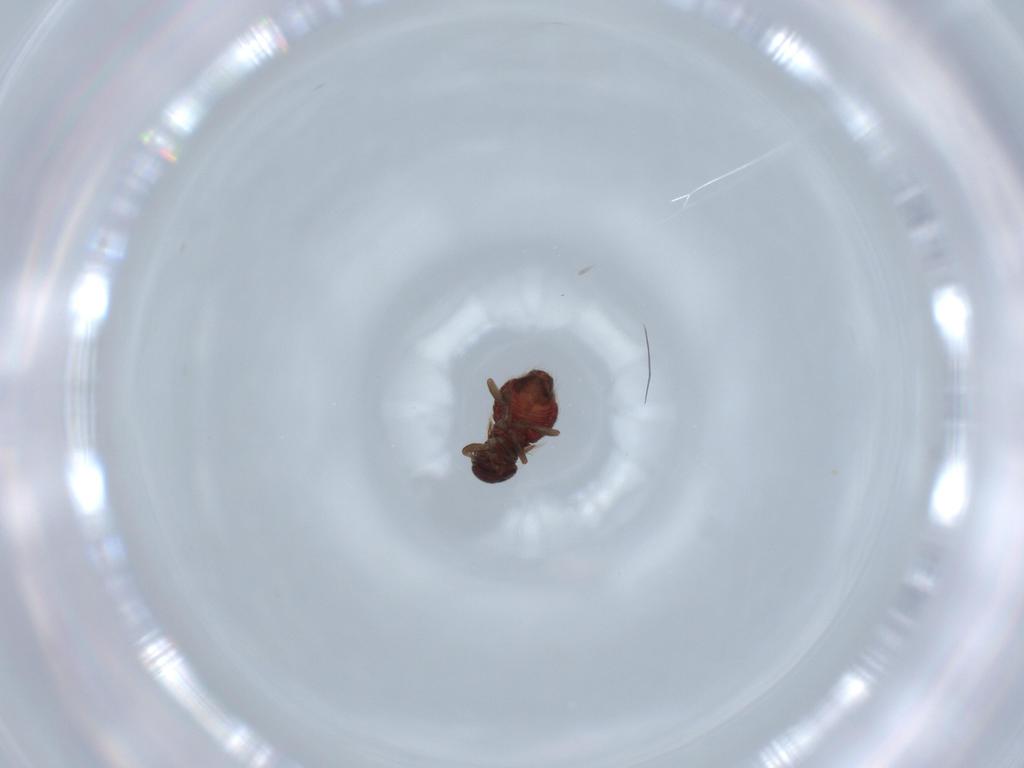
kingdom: Animalia
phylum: Arthropoda
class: Insecta
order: Psocodea
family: Archipsocidae
